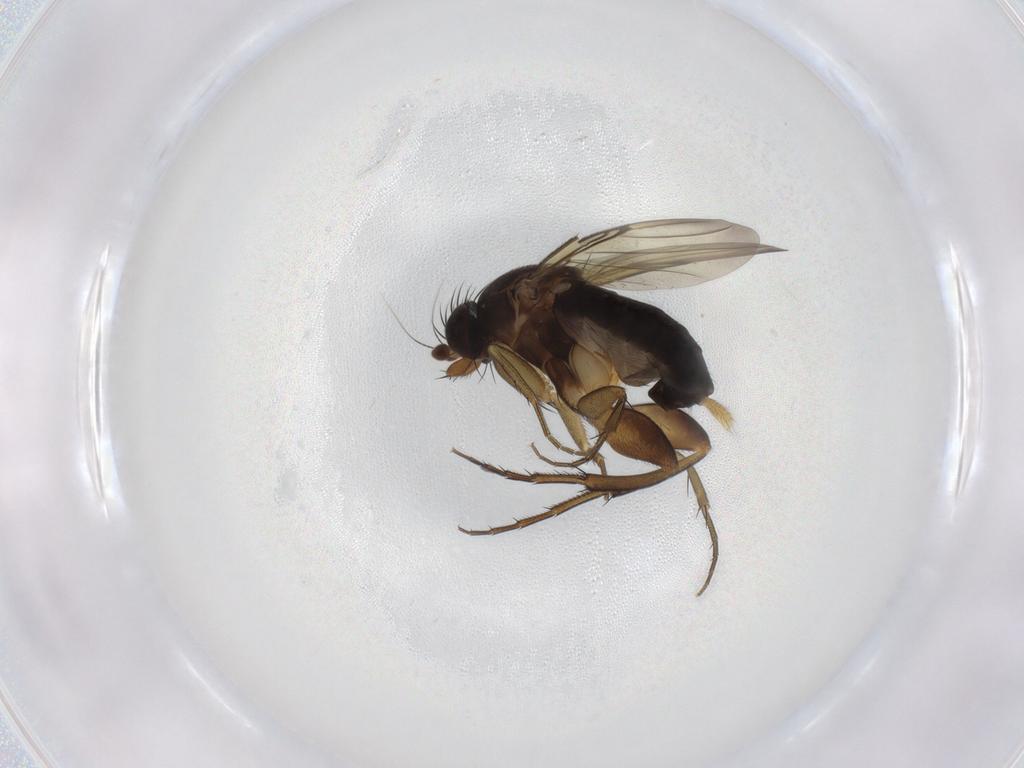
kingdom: Animalia
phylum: Arthropoda
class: Insecta
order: Diptera
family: Phoridae
